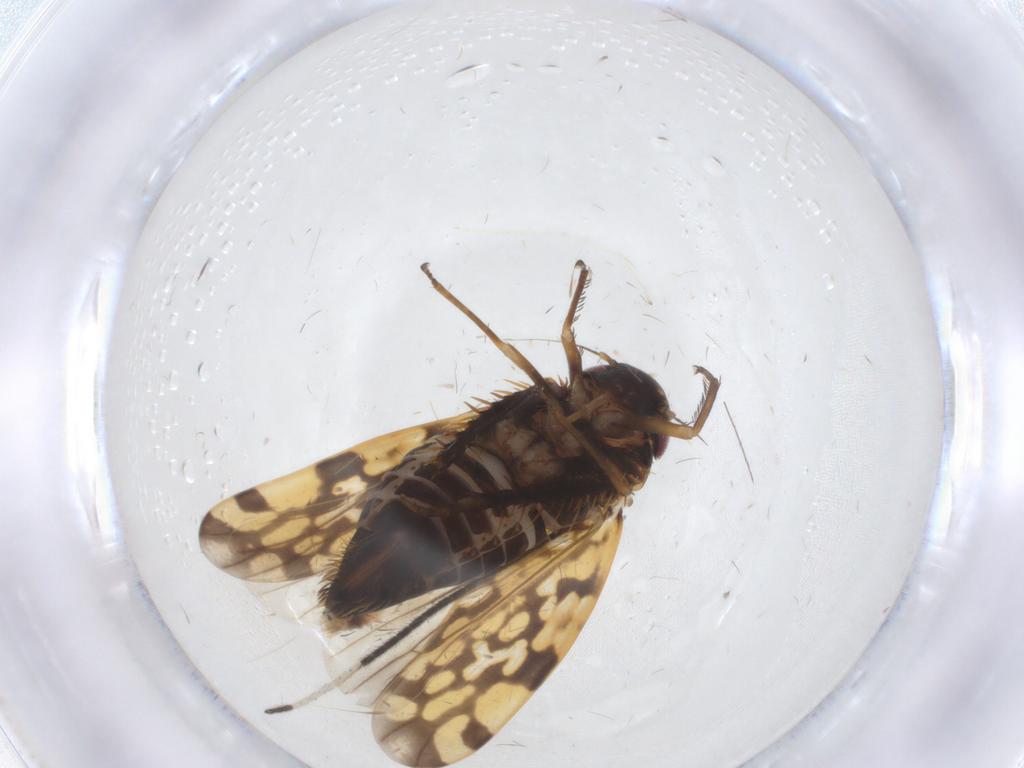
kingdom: Animalia
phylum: Arthropoda
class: Insecta
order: Hemiptera
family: Cicadellidae
